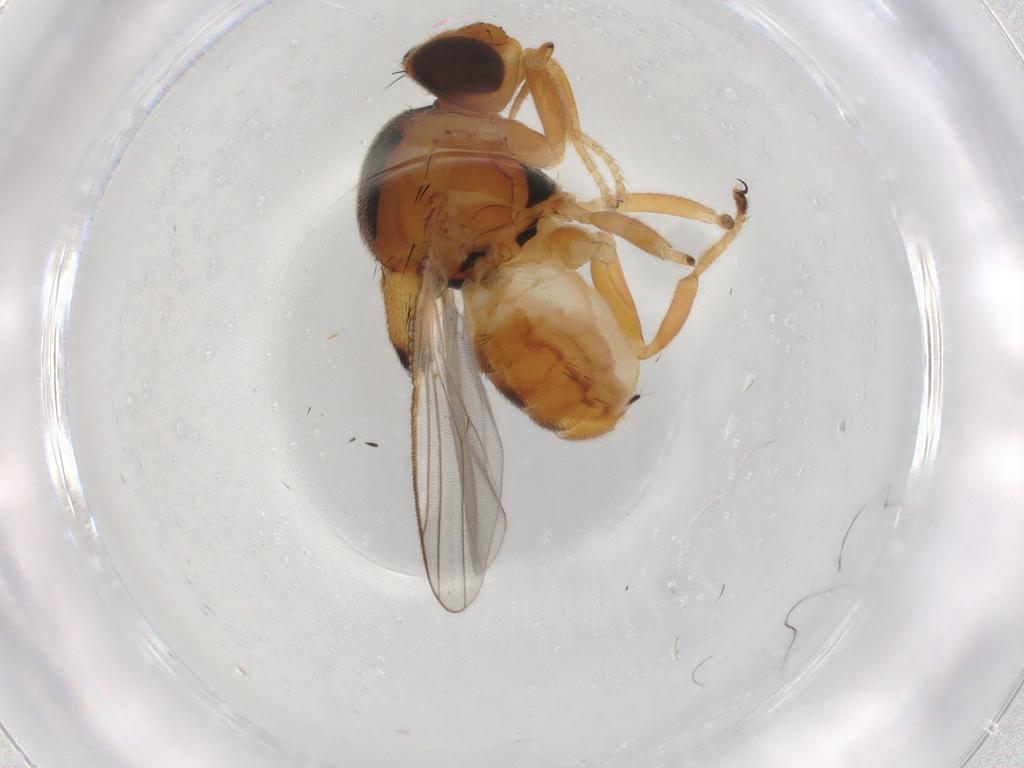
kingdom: Animalia
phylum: Arthropoda
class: Insecta
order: Diptera
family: Chloropidae
